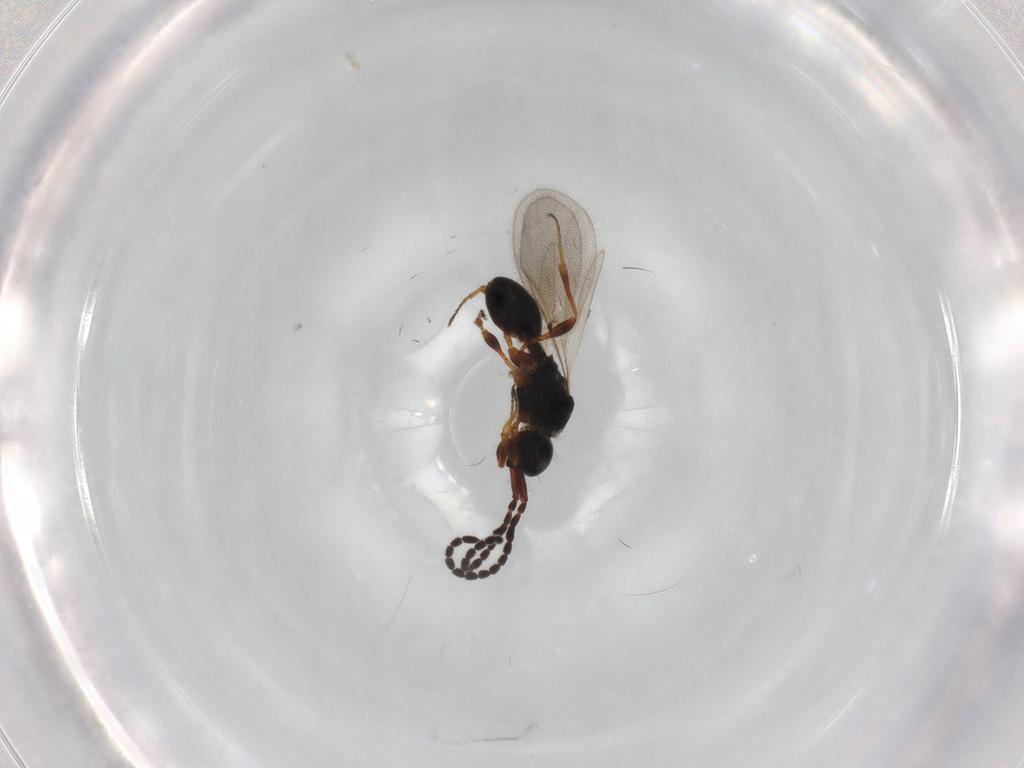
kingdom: Animalia
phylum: Arthropoda
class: Insecta
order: Hymenoptera
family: Diapriidae
